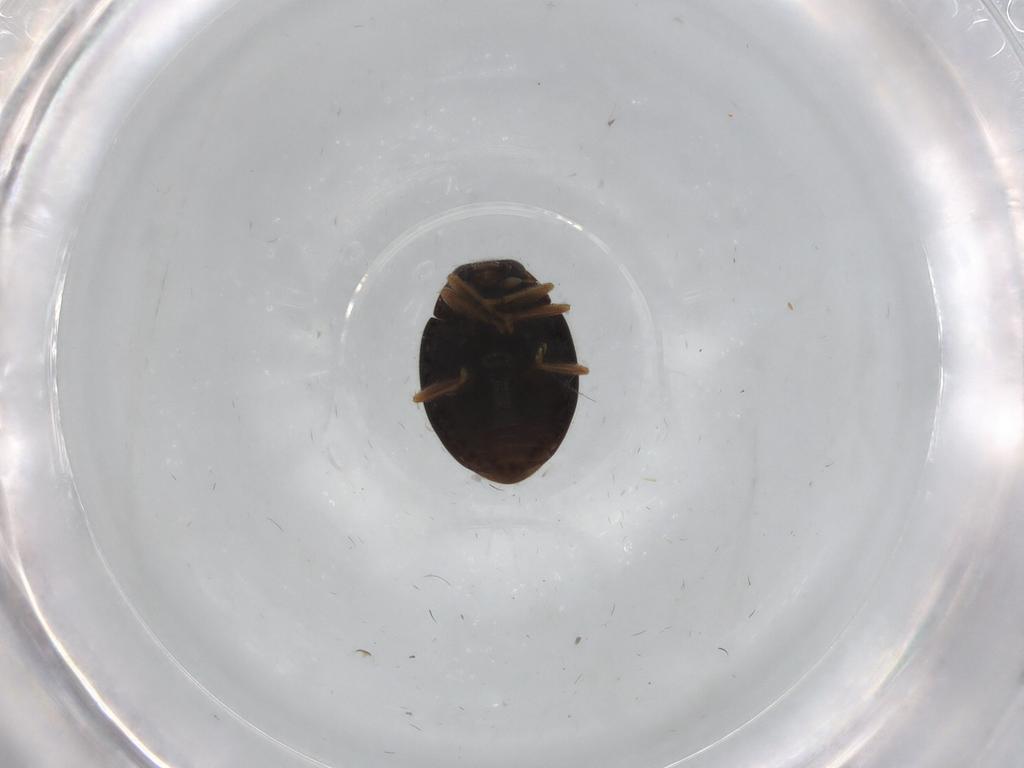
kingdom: Animalia
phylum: Arthropoda
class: Insecta
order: Coleoptera
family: Coccinellidae
